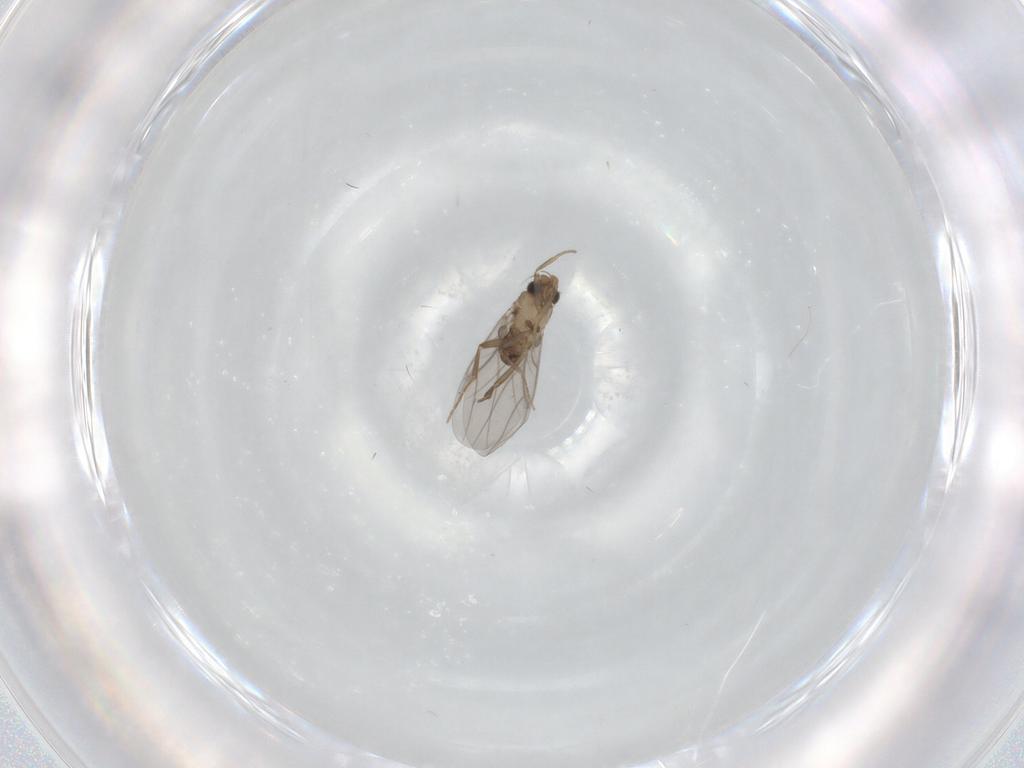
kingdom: Animalia
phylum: Arthropoda
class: Insecta
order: Diptera
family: Cecidomyiidae
